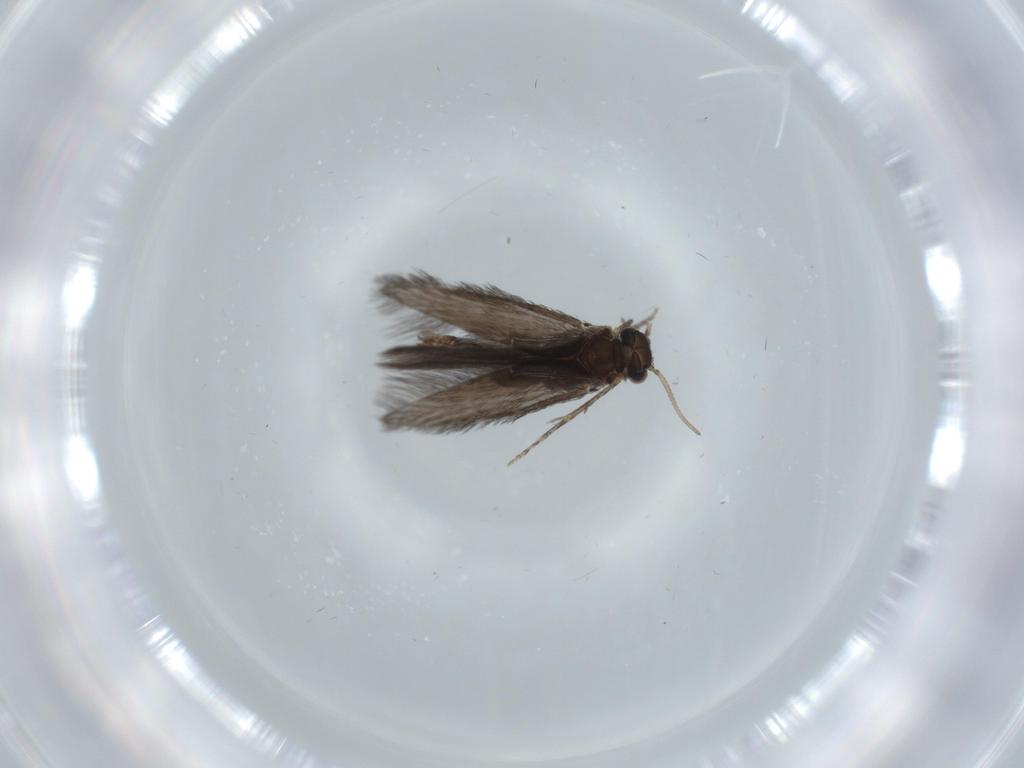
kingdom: Animalia
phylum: Arthropoda
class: Insecta
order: Trichoptera
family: Hydroptilidae
